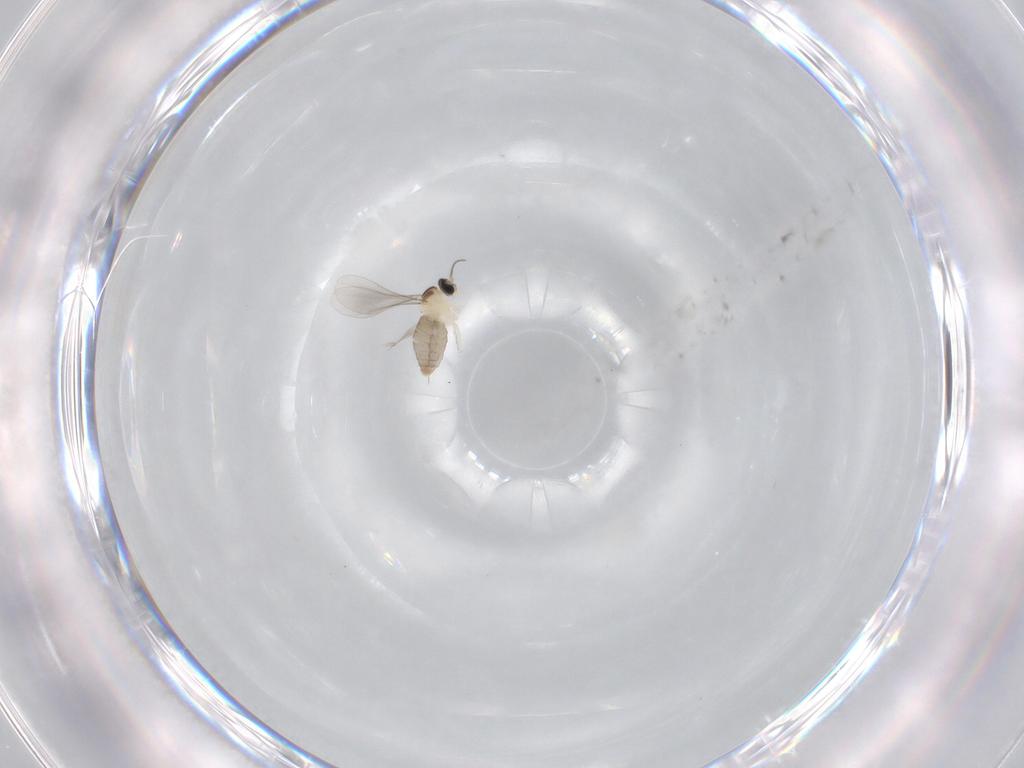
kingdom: Animalia
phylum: Arthropoda
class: Insecta
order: Diptera
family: Cecidomyiidae
